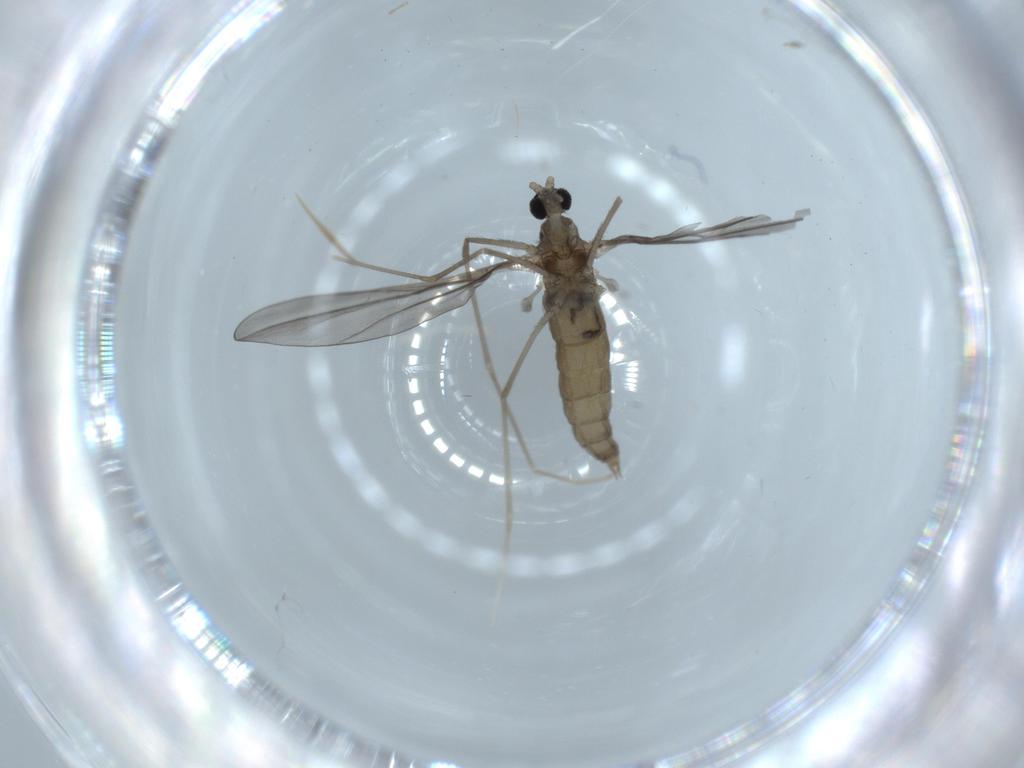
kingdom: Animalia
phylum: Arthropoda
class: Insecta
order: Diptera
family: Cecidomyiidae
